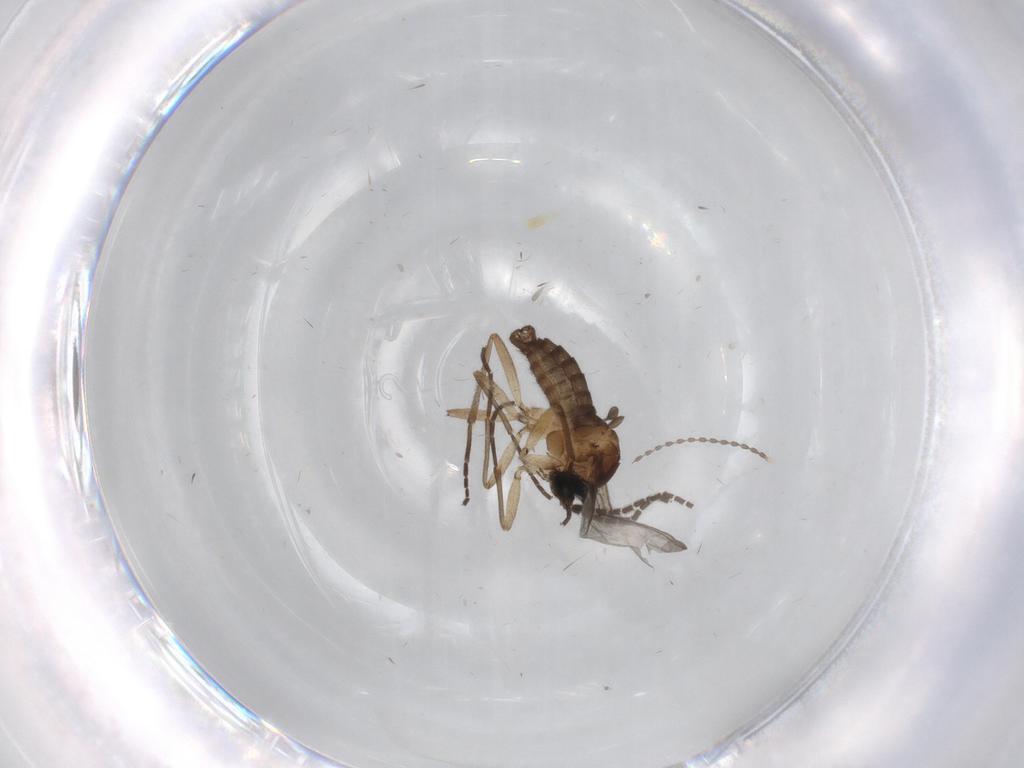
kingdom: Animalia
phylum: Arthropoda
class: Insecta
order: Diptera
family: Cecidomyiidae
